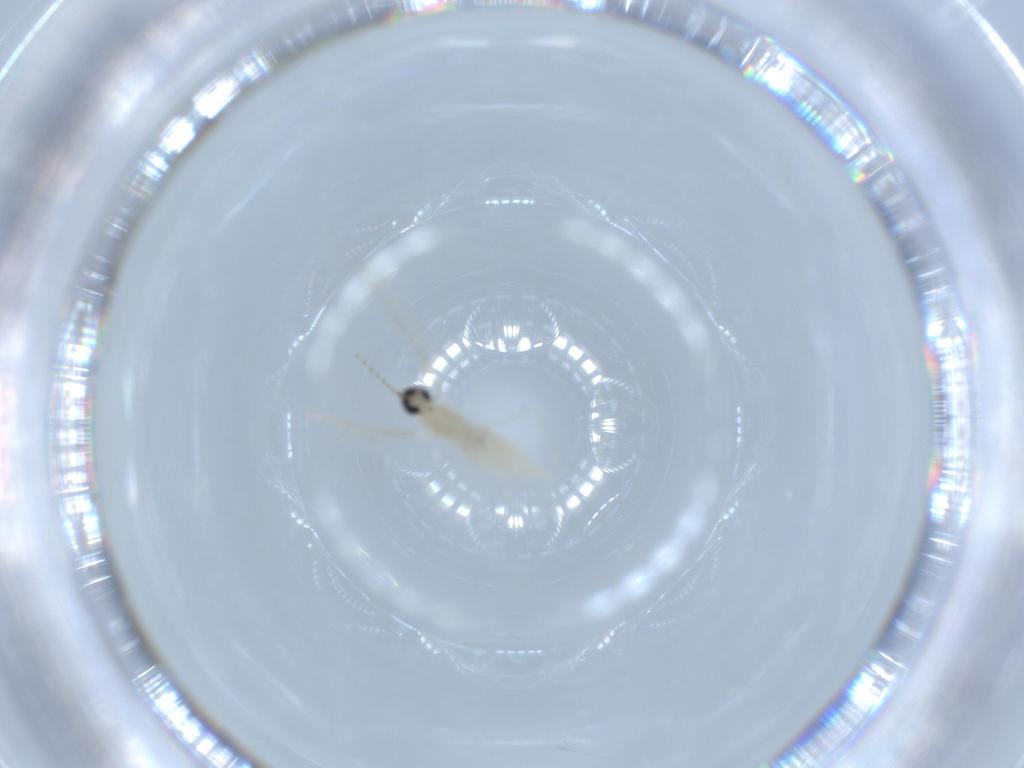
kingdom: Animalia
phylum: Arthropoda
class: Insecta
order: Diptera
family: Cecidomyiidae
